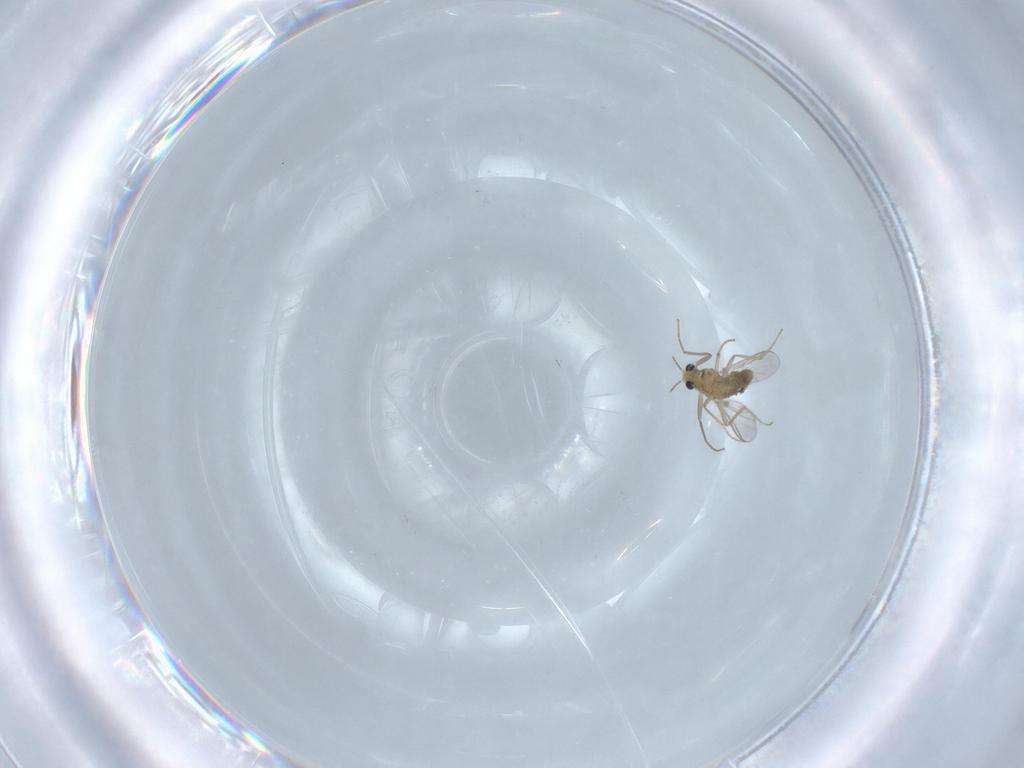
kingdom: Animalia
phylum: Arthropoda
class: Insecta
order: Diptera
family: Chironomidae
